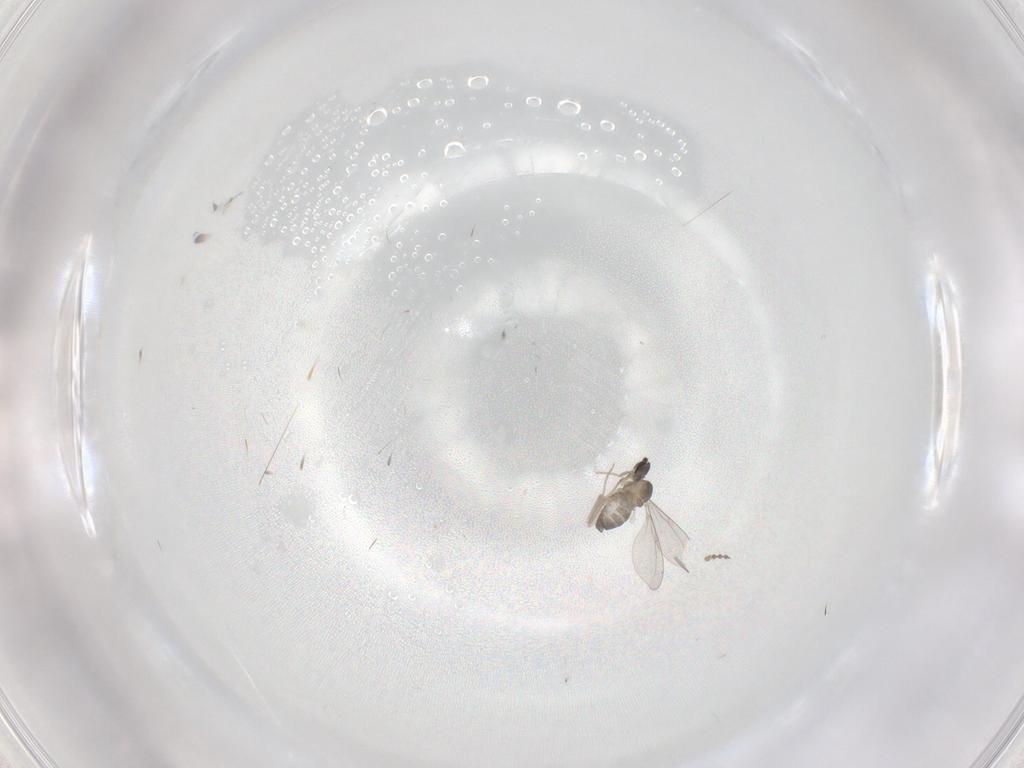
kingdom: Animalia
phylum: Arthropoda
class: Insecta
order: Diptera
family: Cecidomyiidae
